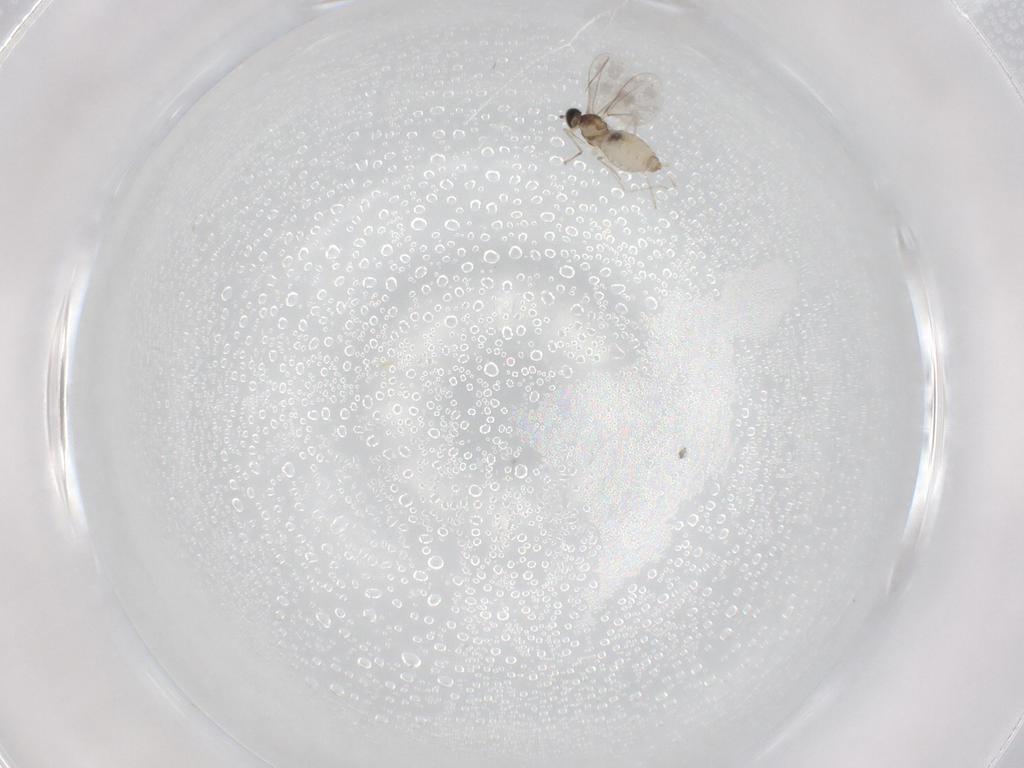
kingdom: Animalia
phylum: Arthropoda
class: Insecta
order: Diptera
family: Cecidomyiidae
